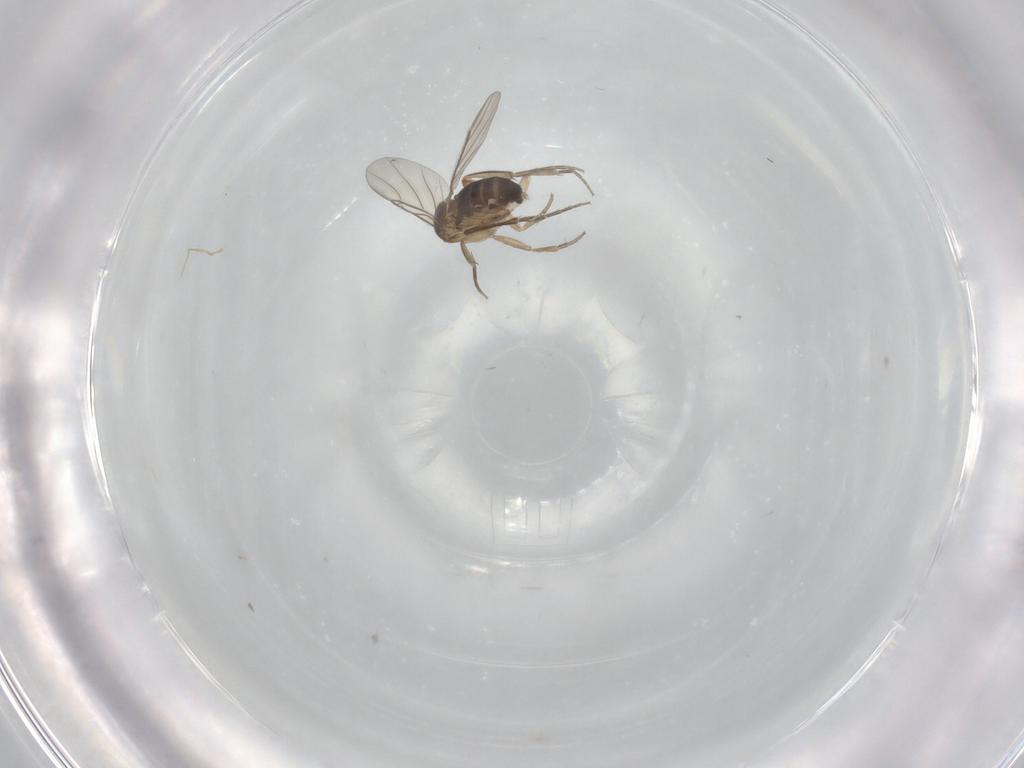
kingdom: Animalia
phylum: Arthropoda
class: Insecta
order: Diptera
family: Phoridae
